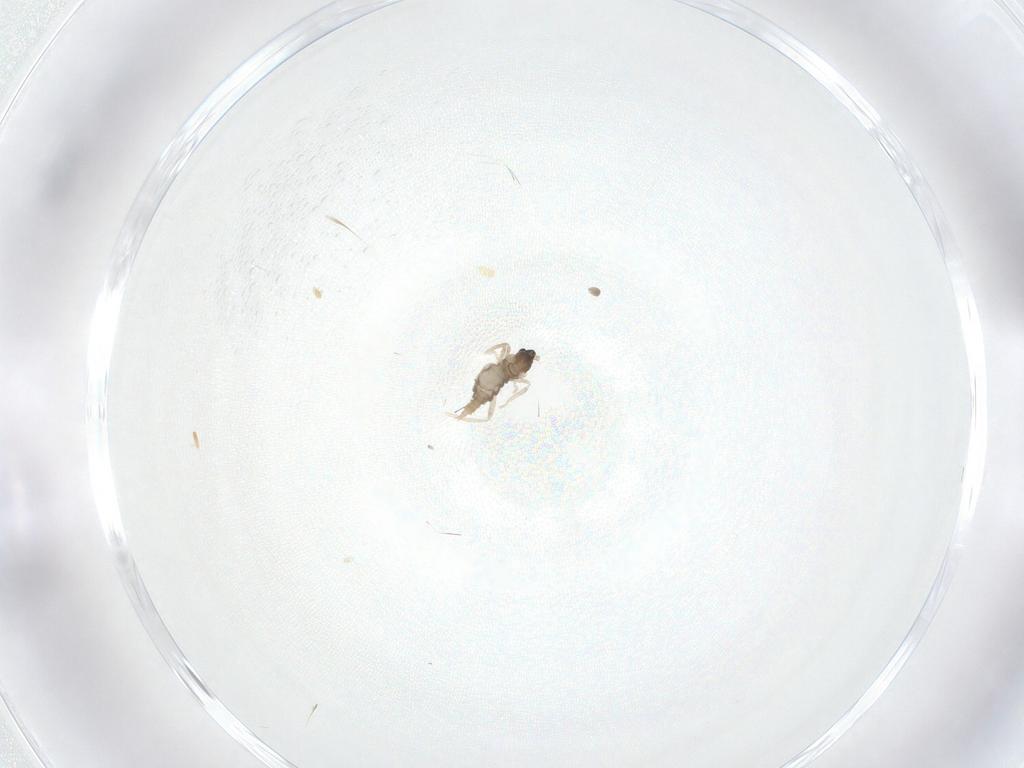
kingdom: Animalia
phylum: Arthropoda
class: Insecta
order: Diptera
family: Cecidomyiidae
